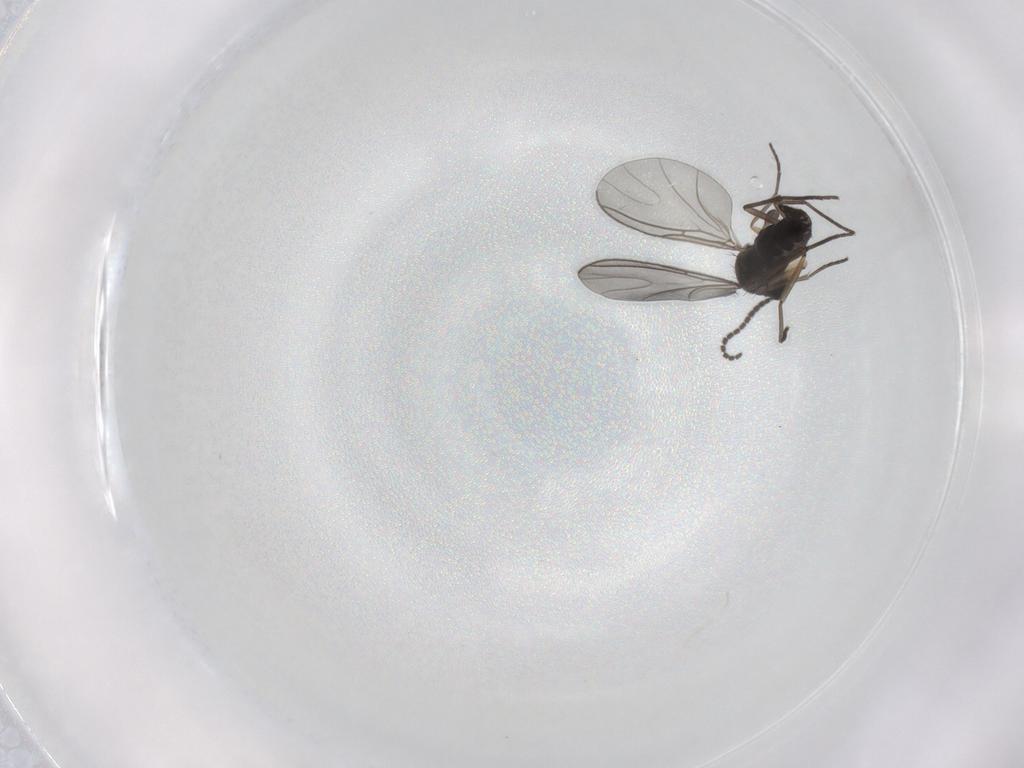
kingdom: Animalia
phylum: Arthropoda
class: Insecta
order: Diptera
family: Sciaridae
